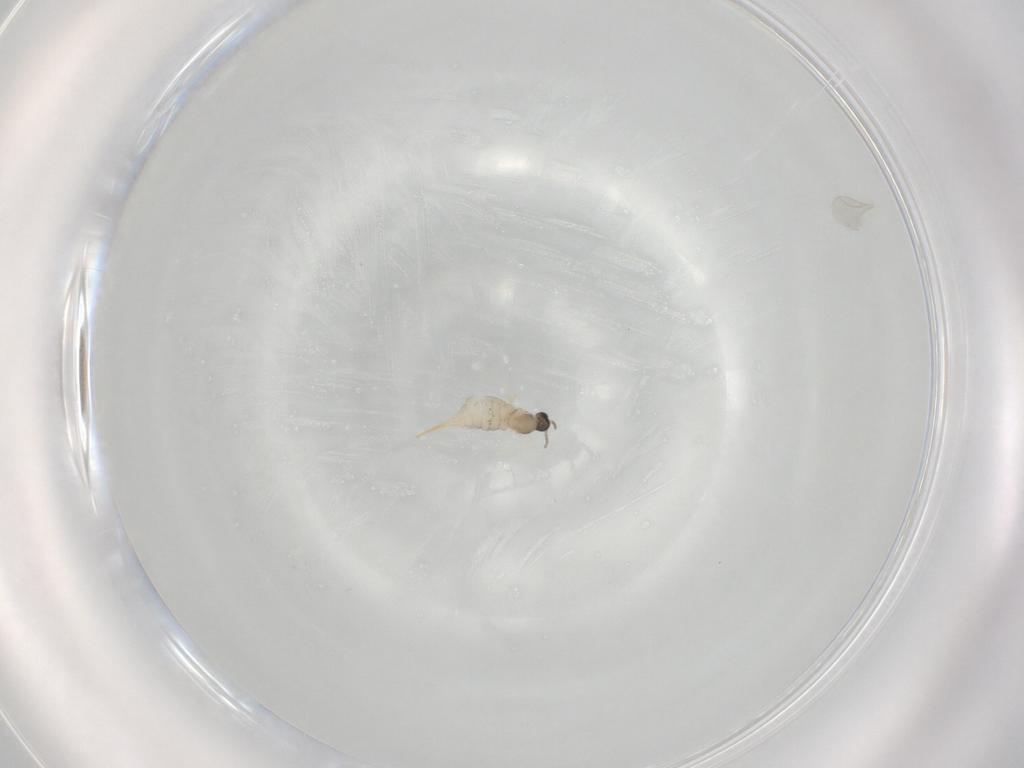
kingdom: Animalia
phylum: Arthropoda
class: Insecta
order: Diptera
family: Cecidomyiidae
